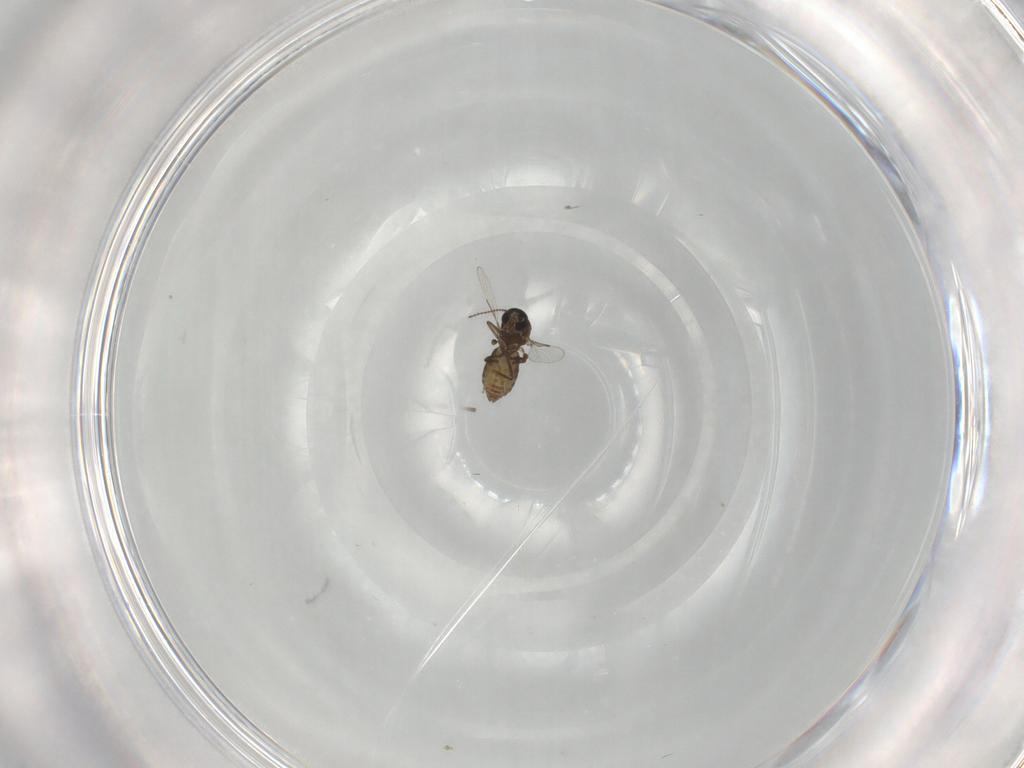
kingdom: Animalia
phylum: Arthropoda
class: Insecta
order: Diptera
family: Ceratopogonidae
